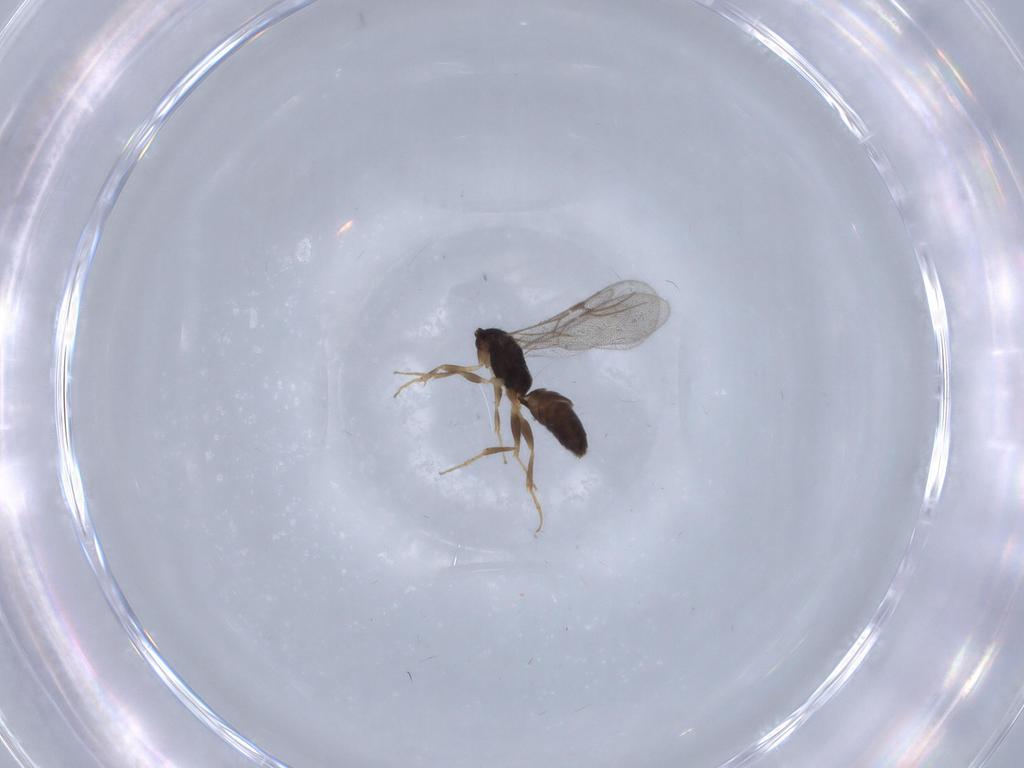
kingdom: Animalia
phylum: Arthropoda
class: Insecta
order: Hymenoptera
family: Bethylidae
